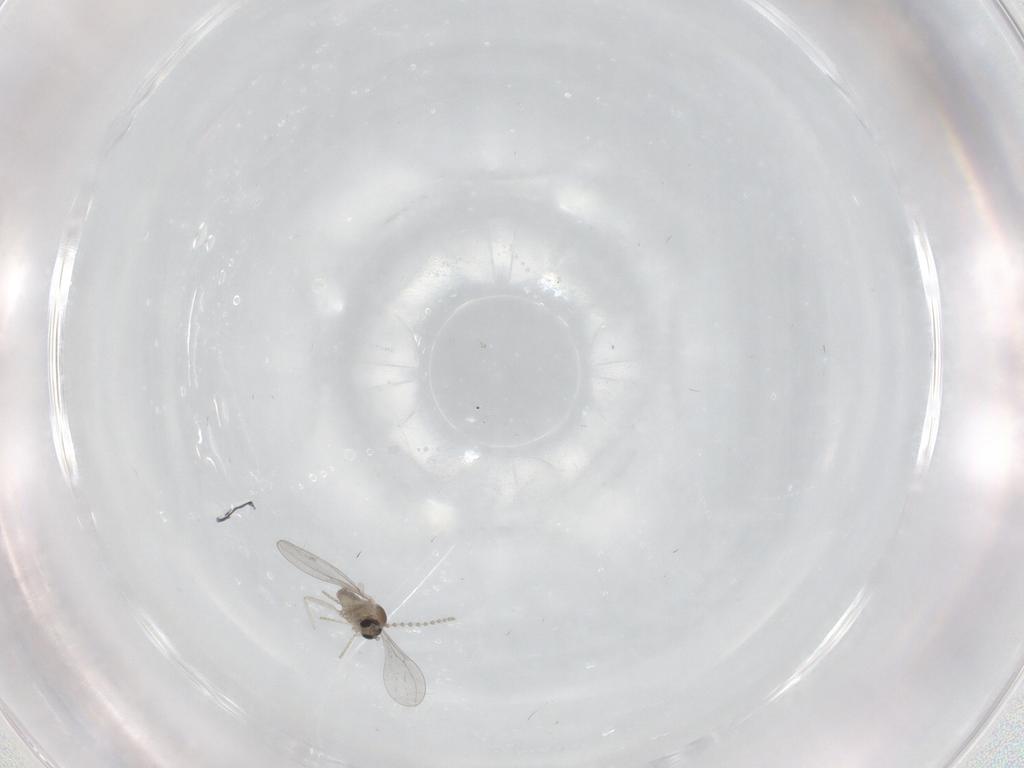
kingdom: Animalia
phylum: Arthropoda
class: Insecta
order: Diptera
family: Cecidomyiidae
